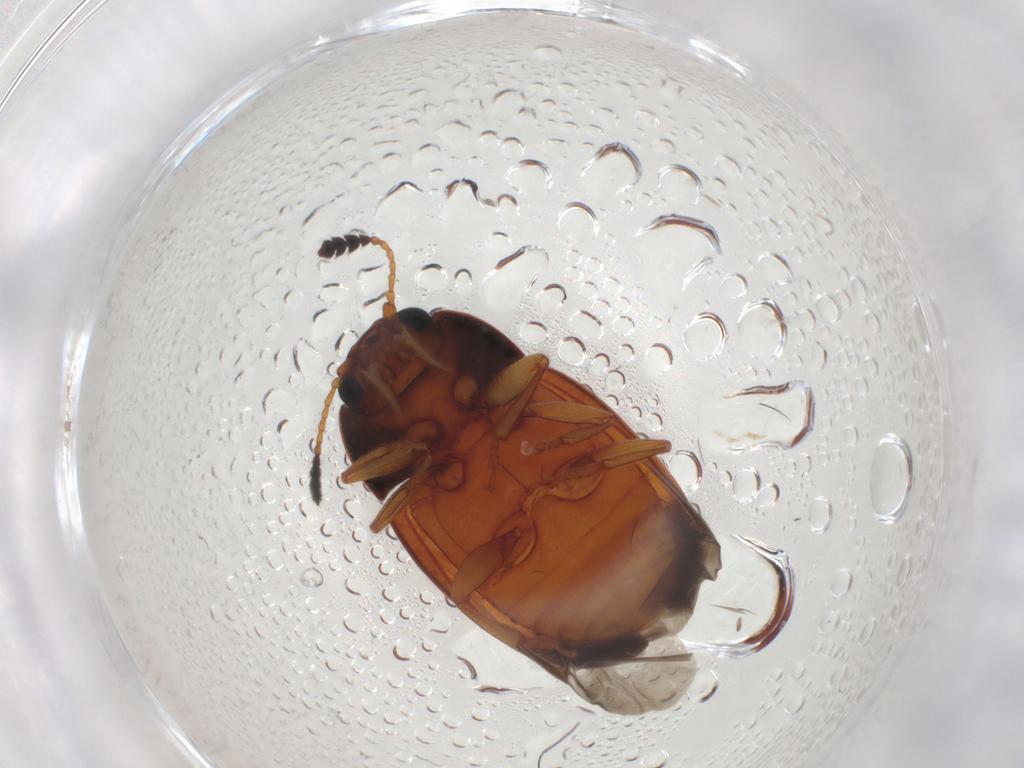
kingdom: Animalia
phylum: Arthropoda
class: Insecta
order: Coleoptera
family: Erotylidae
